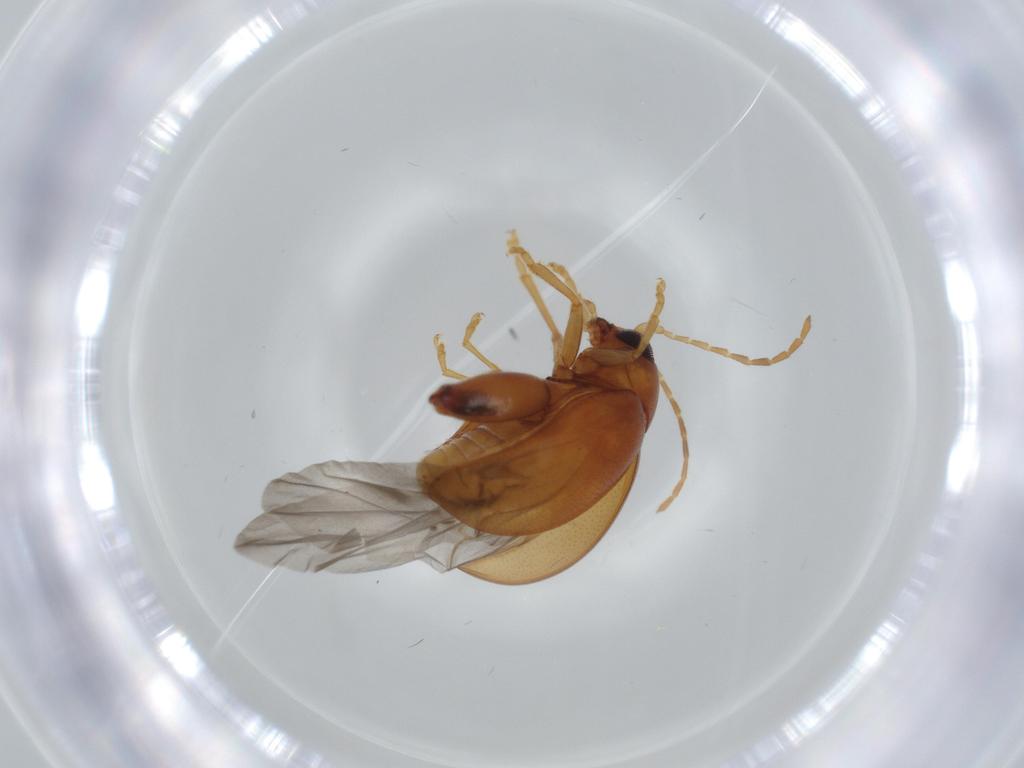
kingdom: Animalia
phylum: Arthropoda
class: Insecta
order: Coleoptera
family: Chrysomelidae
